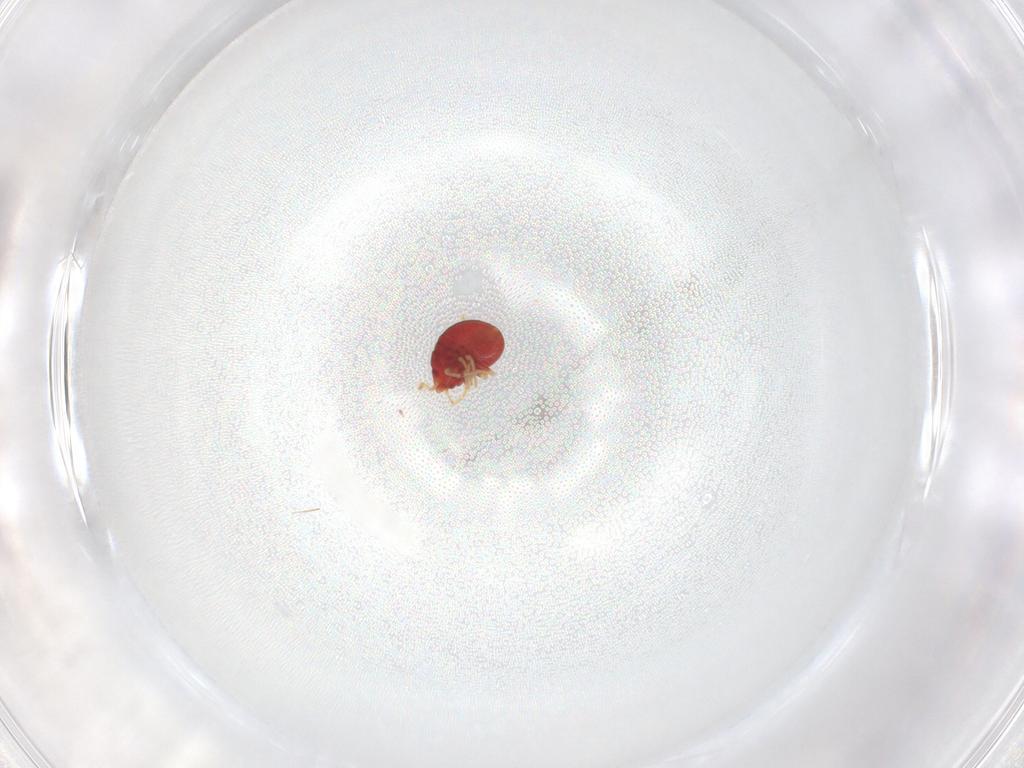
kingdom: Animalia
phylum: Arthropoda
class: Insecta
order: Hemiptera
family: Anthocoridae
